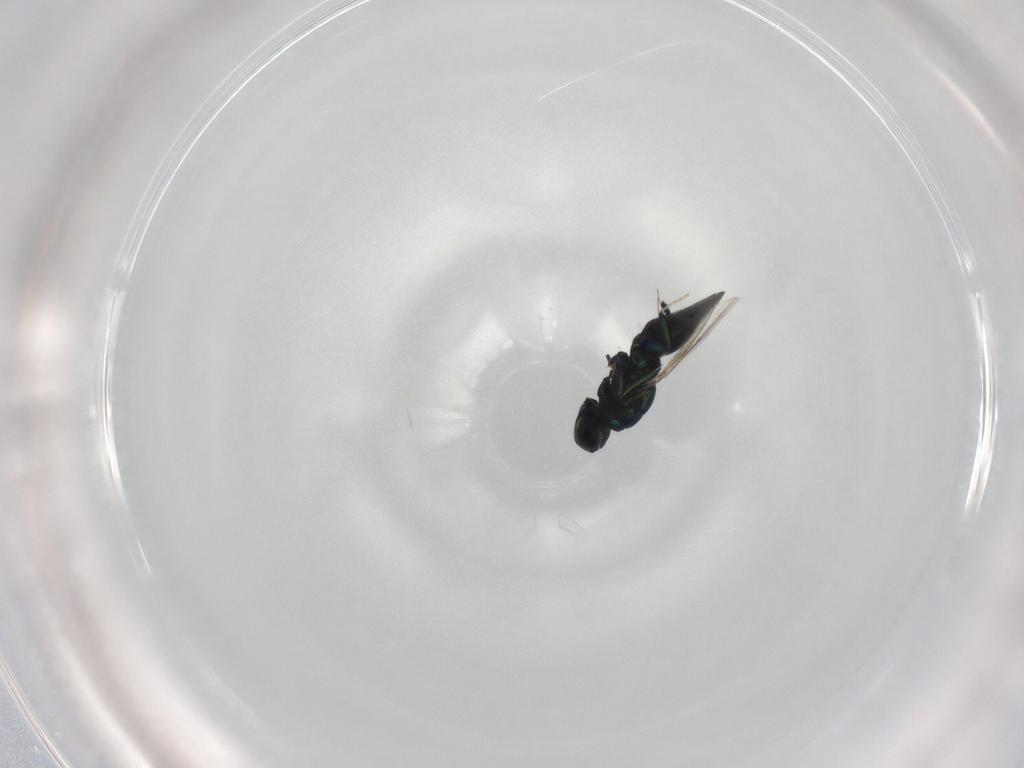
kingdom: Animalia
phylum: Arthropoda
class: Insecta
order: Hymenoptera
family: Eulophidae
